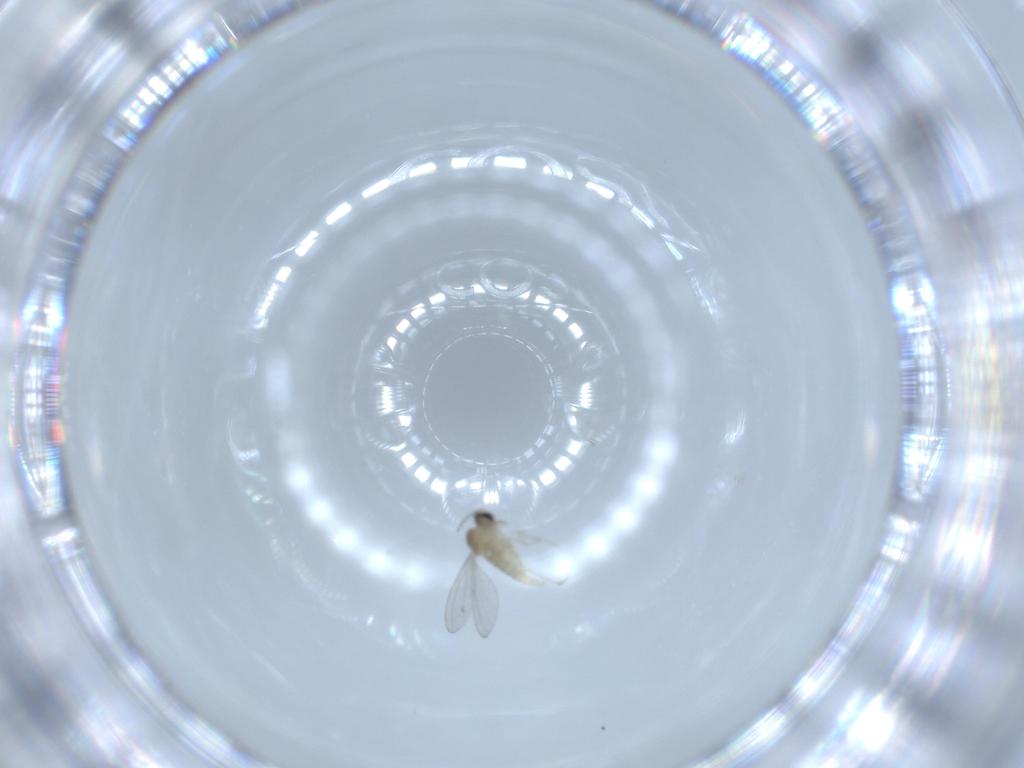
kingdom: Animalia
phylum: Arthropoda
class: Insecta
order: Diptera
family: Cecidomyiidae
